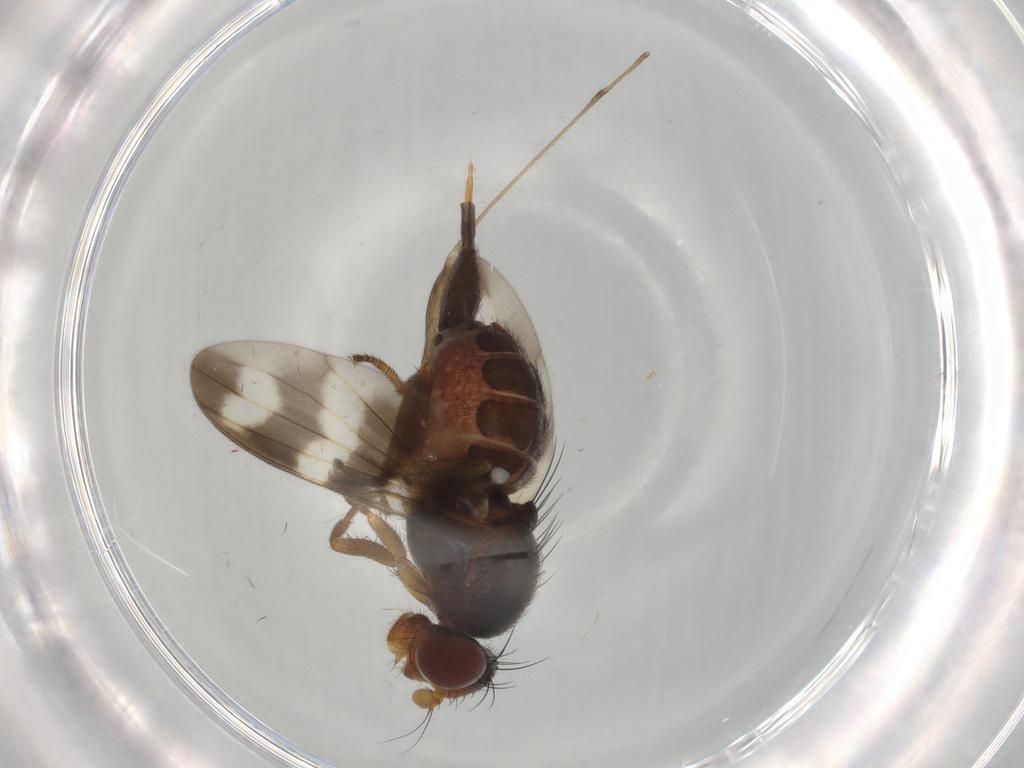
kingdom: Animalia
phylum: Arthropoda
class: Insecta
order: Diptera
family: Limoniidae
